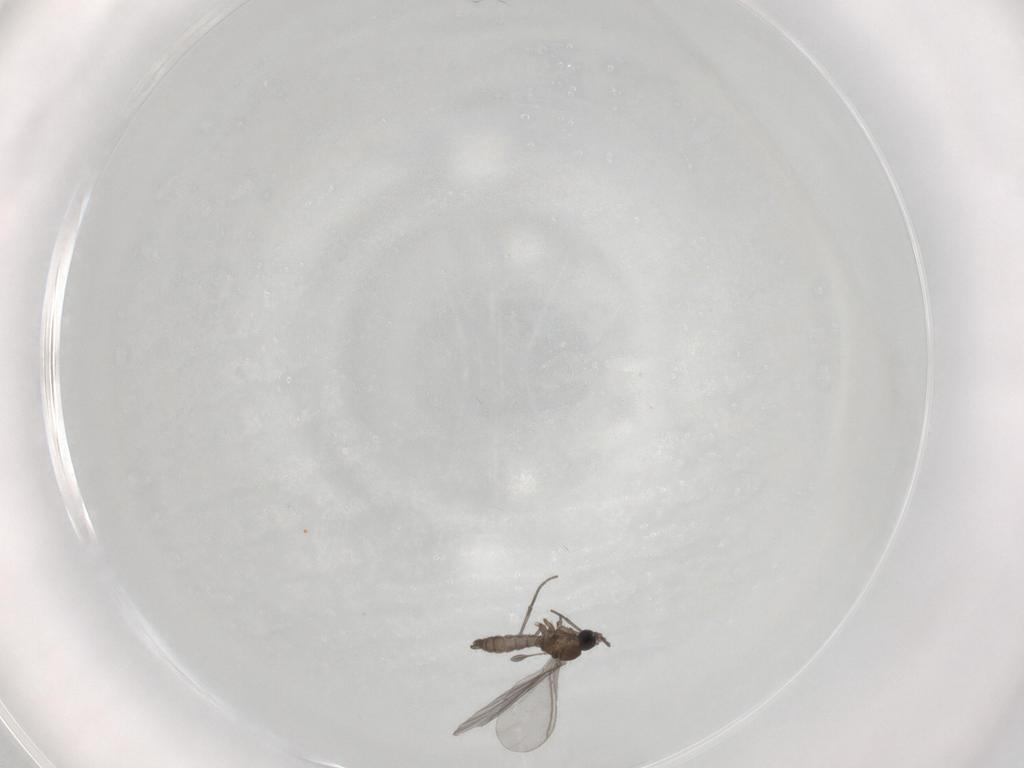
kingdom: Animalia
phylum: Arthropoda
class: Insecta
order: Diptera
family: Sciaridae
